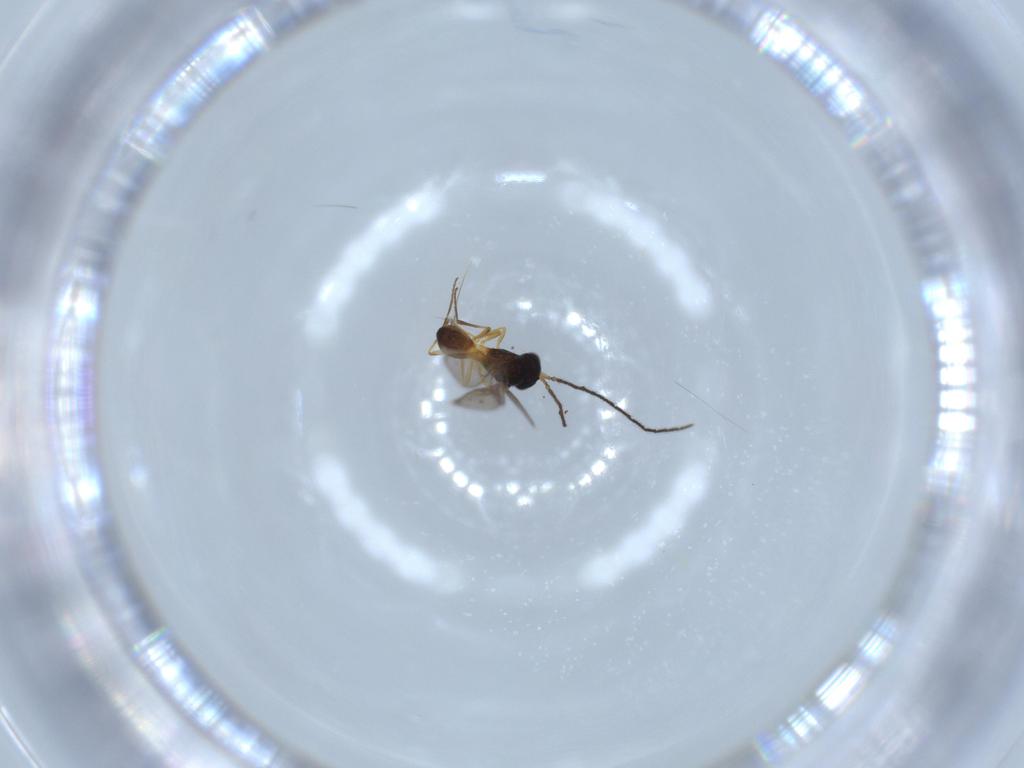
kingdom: Animalia
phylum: Arthropoda
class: Insecta
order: Hymenoptera
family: Scelionidae
